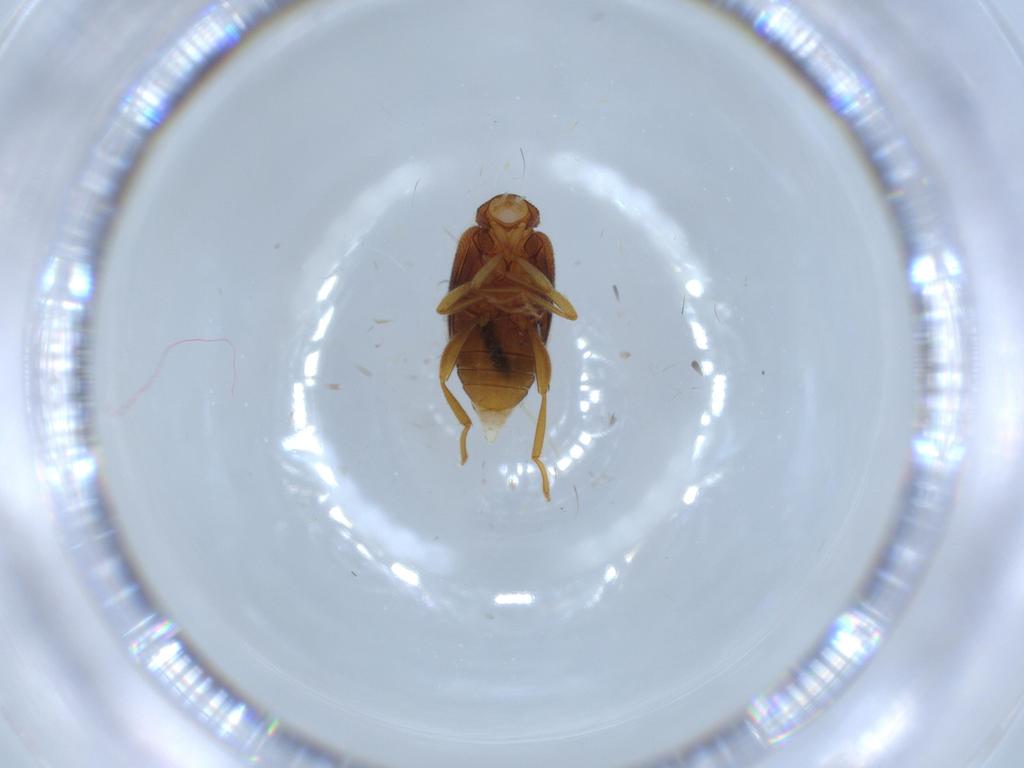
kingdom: Animalia
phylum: Arthropoda
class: Insecta
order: Coleoptera
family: Aderidae
